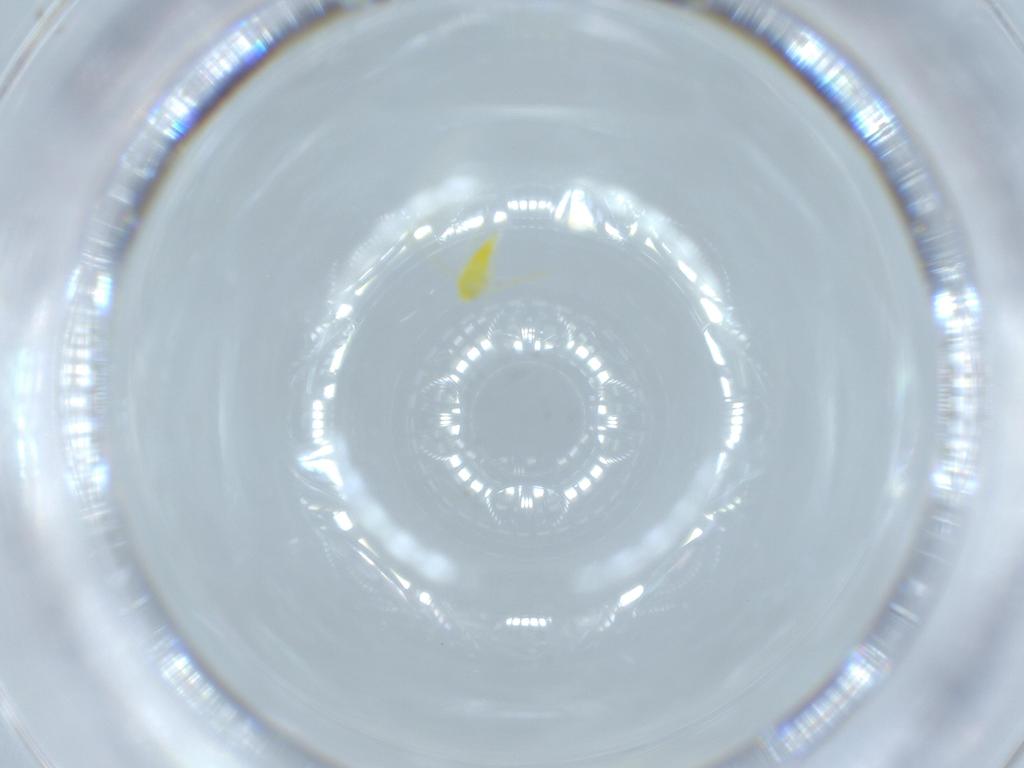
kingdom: Animalia
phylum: Arthropoda
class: Insecta
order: Hemiptera
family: Aleyrodidae
